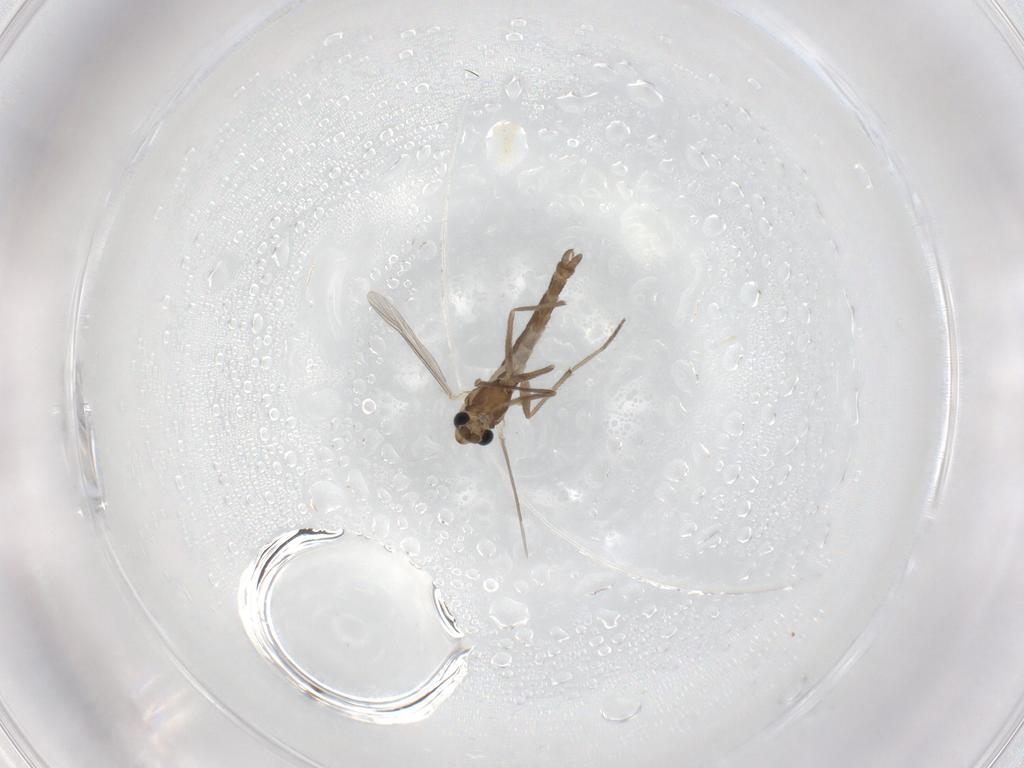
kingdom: Animalia
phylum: Arthropoda
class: Insecta
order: Diptera
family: Chironomidae
